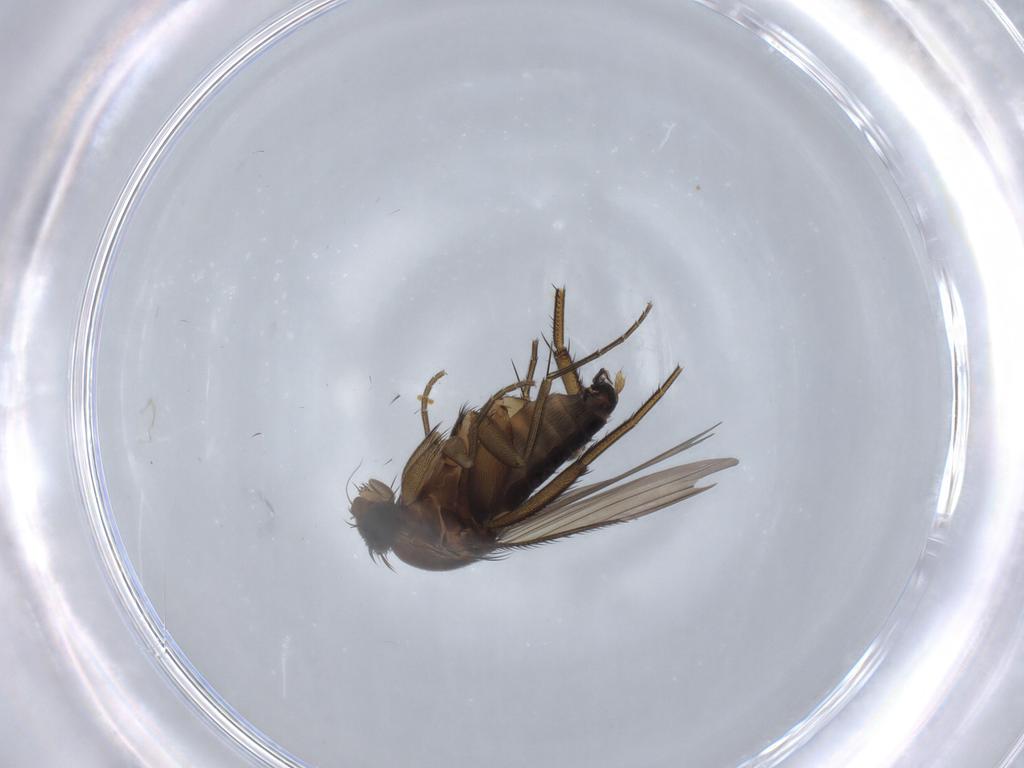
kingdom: Animalia
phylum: Arthropoda
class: Insecta
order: Diptera
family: Phoridae
